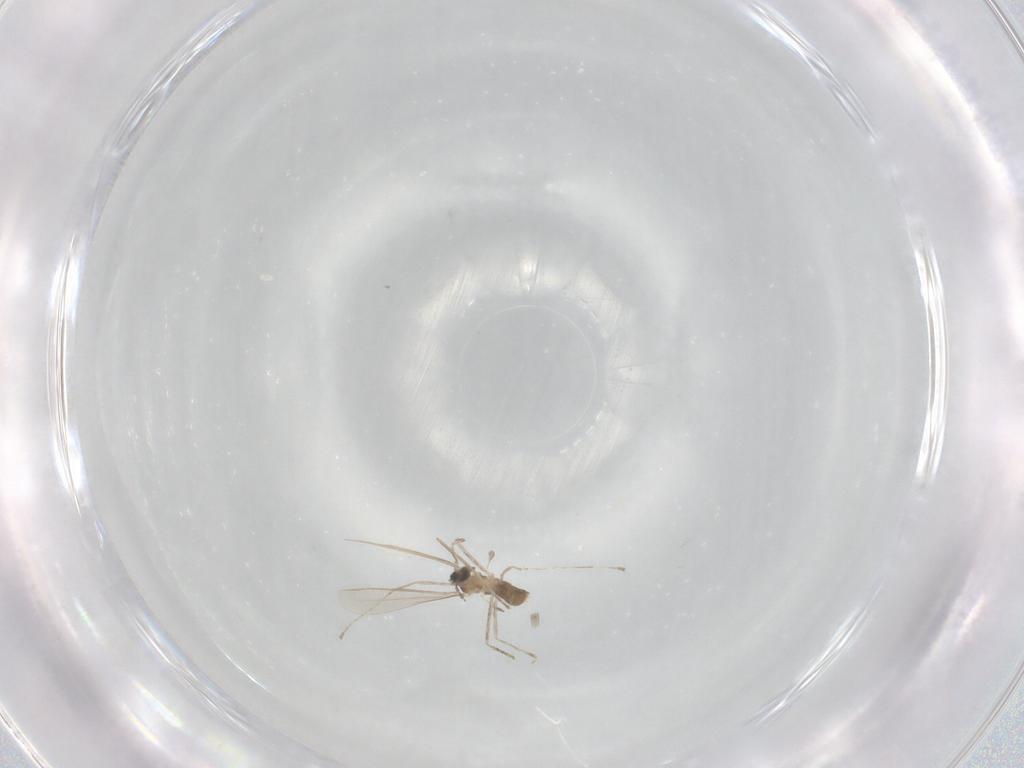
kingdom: Animalia
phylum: Arthropoda
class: Insecta
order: Diptera
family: Cecidomyiidae
